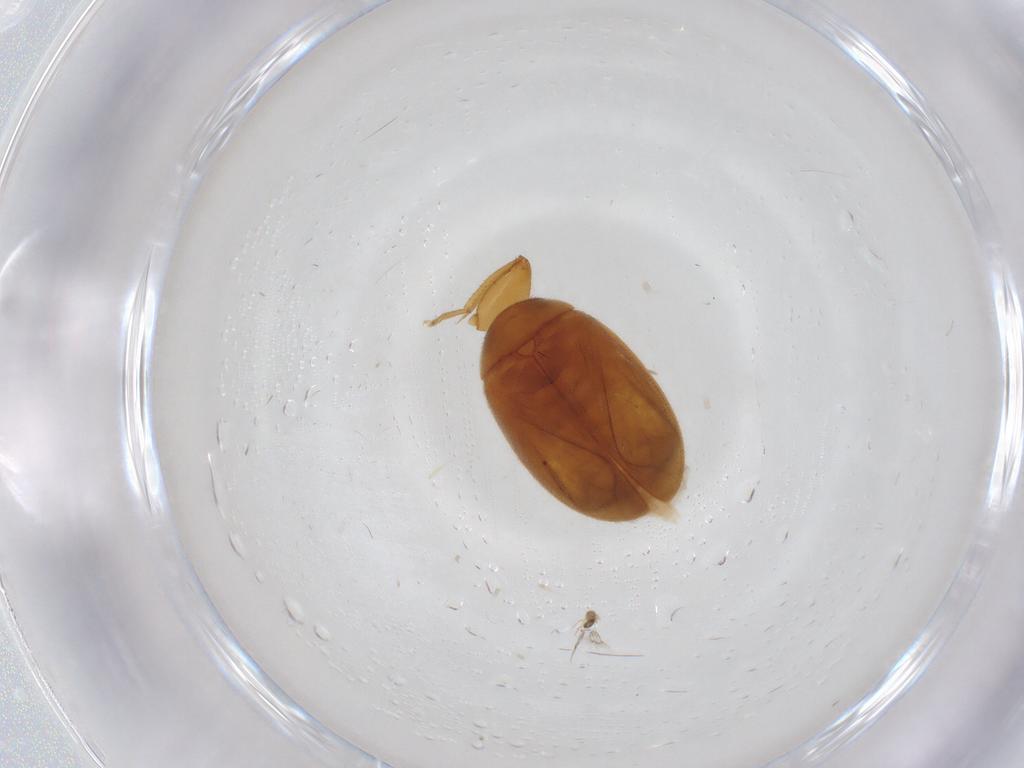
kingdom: Animalia
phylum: Arthropoda
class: Insecta
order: Coleoptera
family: Scirtidae
